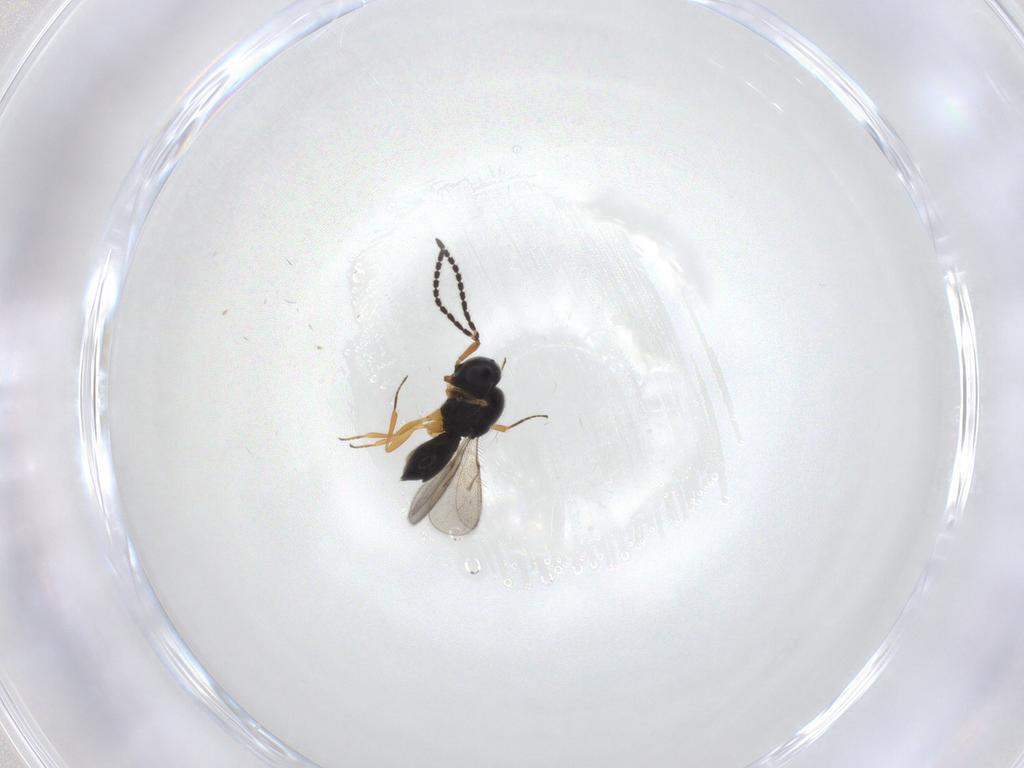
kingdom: Animalia
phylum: Arthropoda
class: Insecta
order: Hymenoptera
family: Scelionidae
